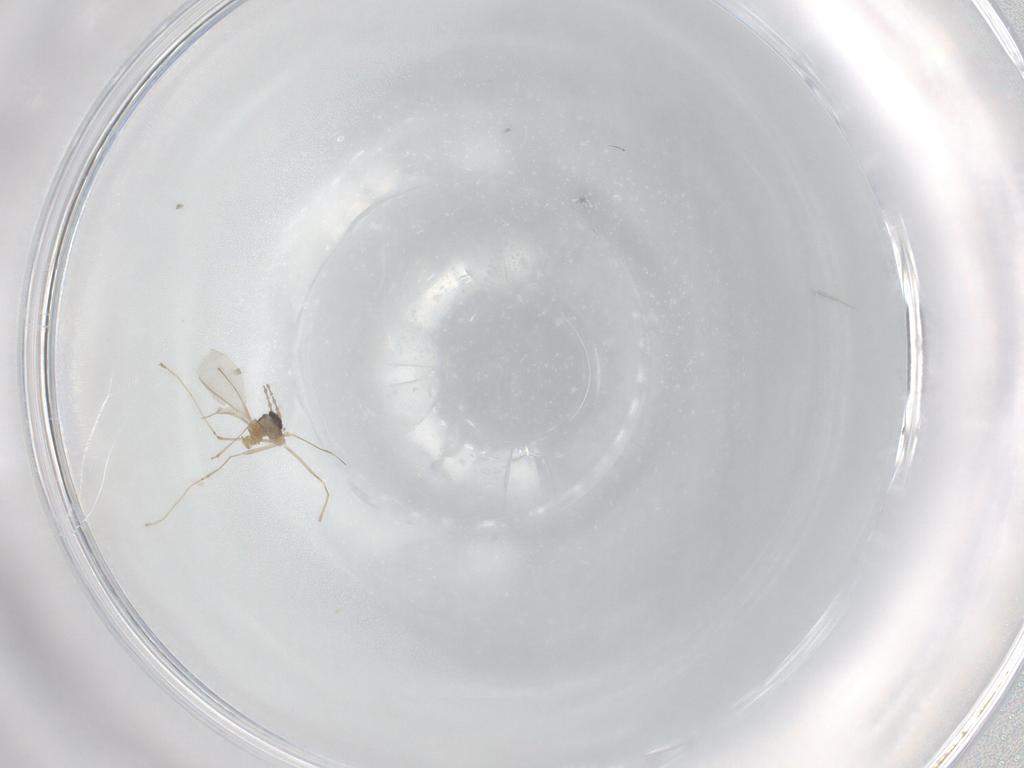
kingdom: Animalia
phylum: Arthropoda
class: Insecta
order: Diptera
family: Cecidomyiidae
